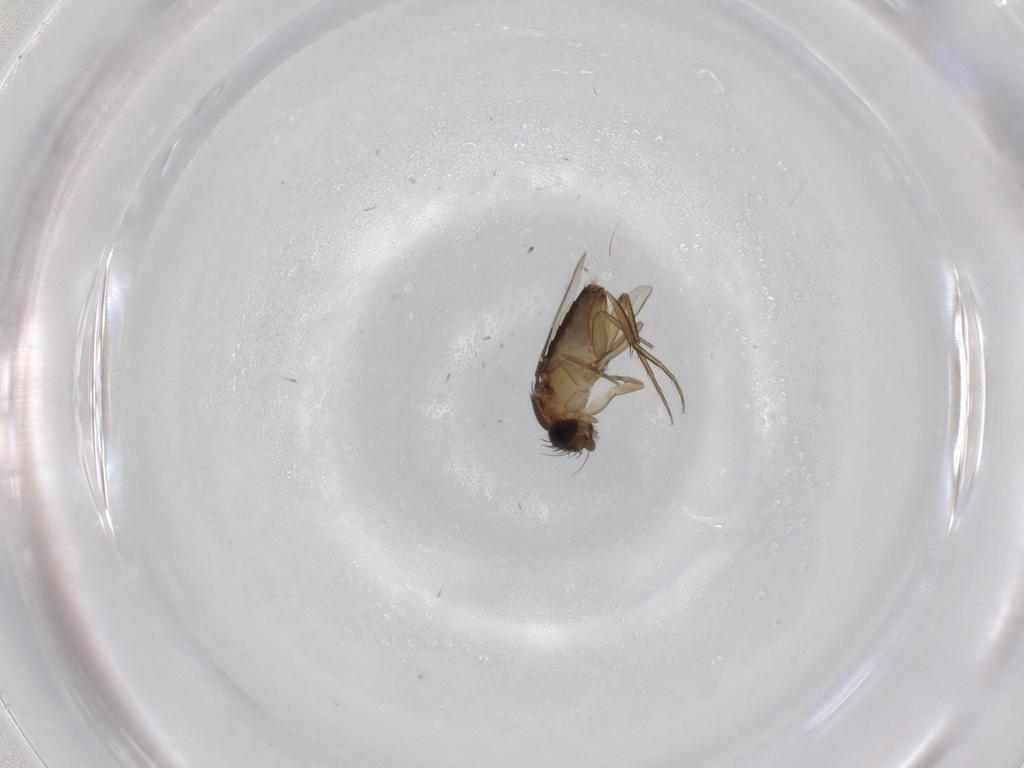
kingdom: Animalia
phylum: Arthropoda
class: Insecta
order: Diptera
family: Phoridae
